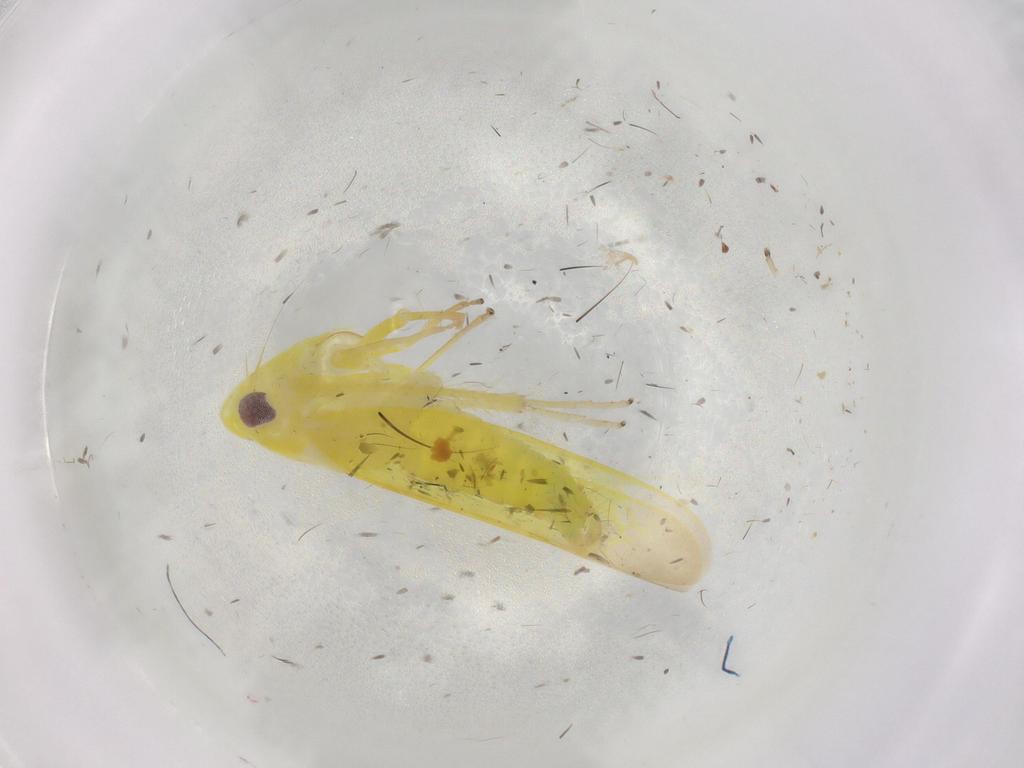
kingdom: Animalia
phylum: Arthropoda
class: Insecta
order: Hemiptera
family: Cicadellidae
